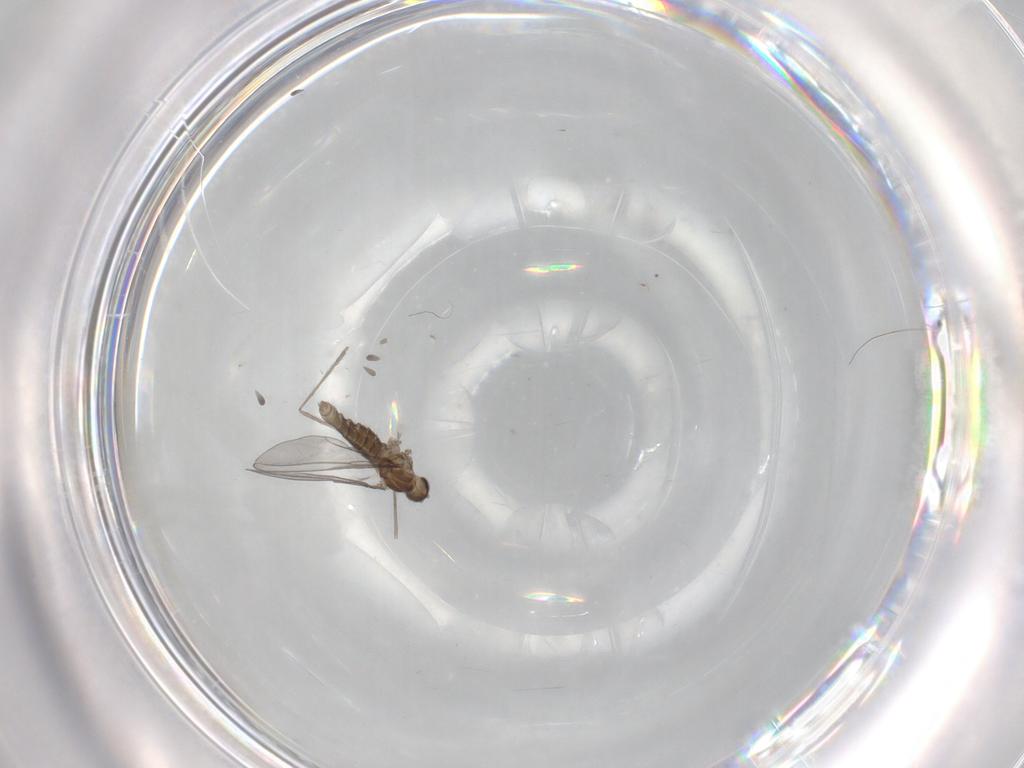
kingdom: Animalia
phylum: Arthropoda
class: Insecta
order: Diptera
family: Cecidomyiidae
